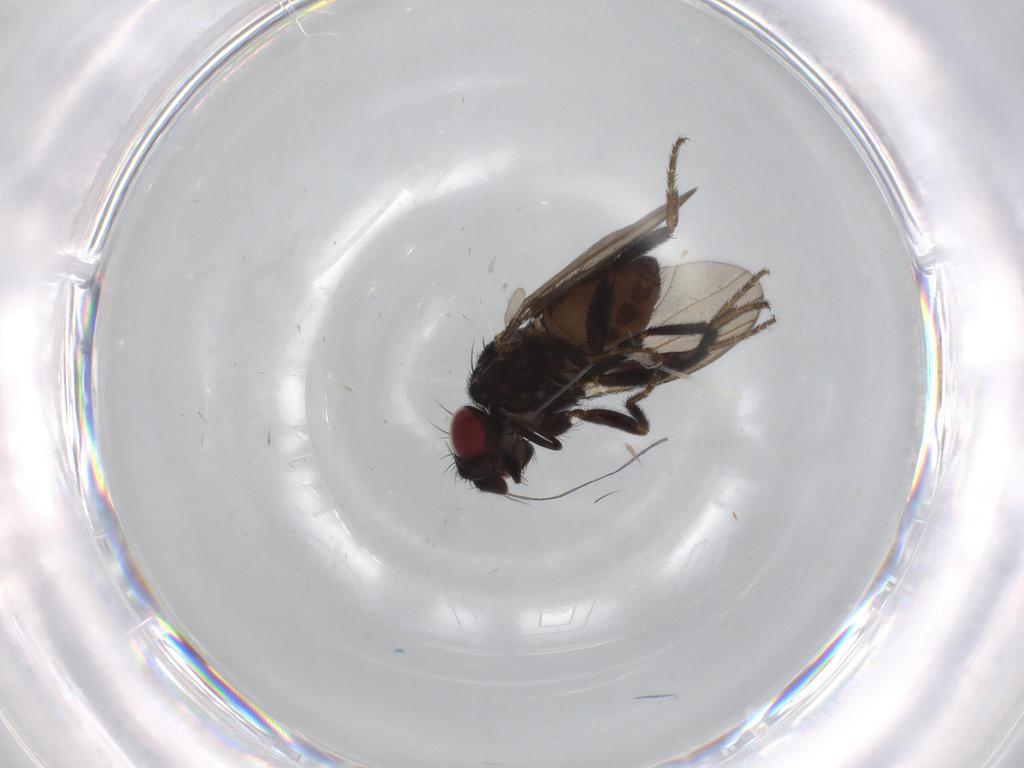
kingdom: Animalia
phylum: Arthropoda
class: Insecta
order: Diptera
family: Milichiidae
